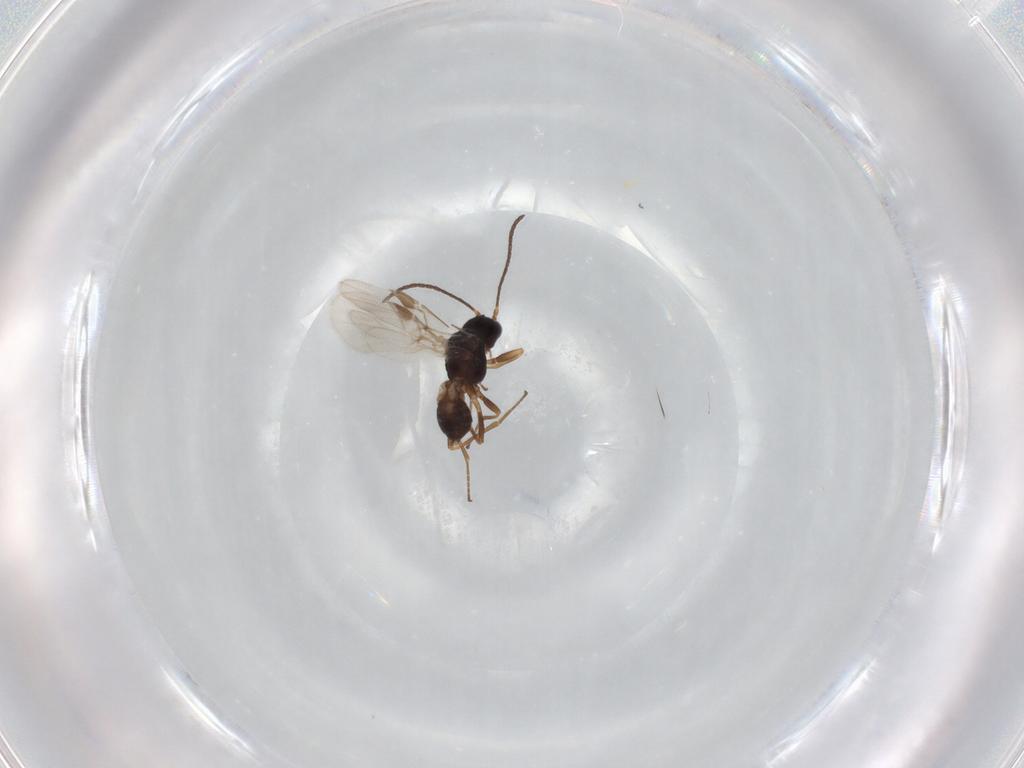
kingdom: Animalia
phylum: Arthropoda
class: Insecta
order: Hymenoptera
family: Braconidae
